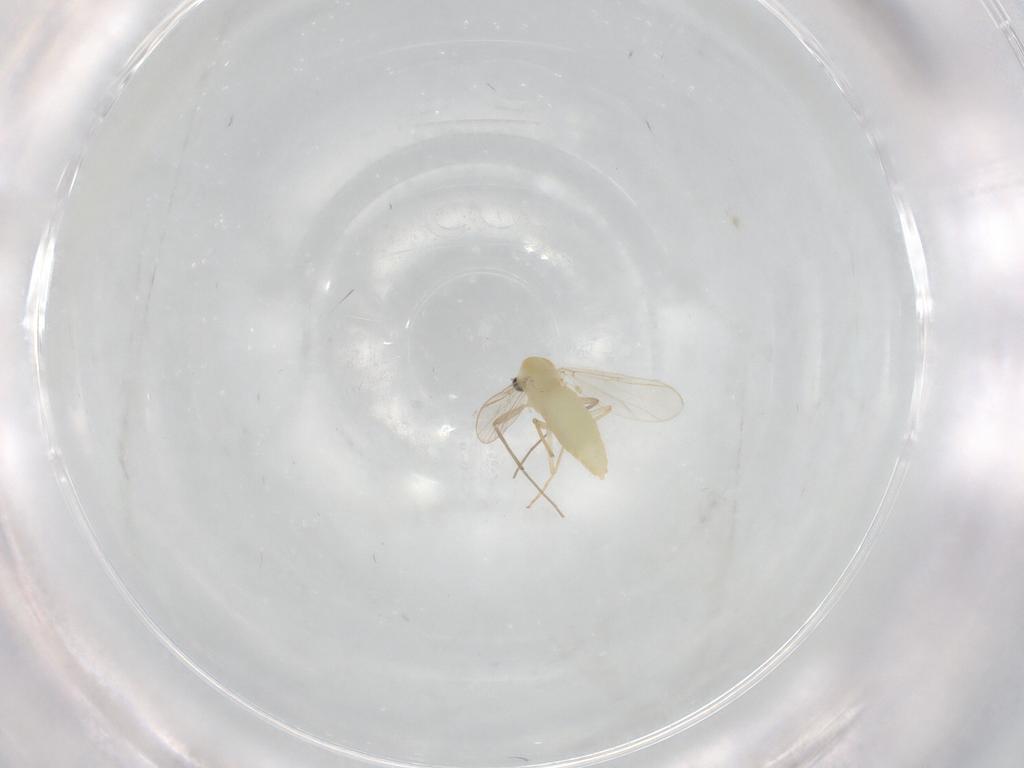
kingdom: Animalia
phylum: Arthropoda
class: Insecta
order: Diptera
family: Chironomidae
